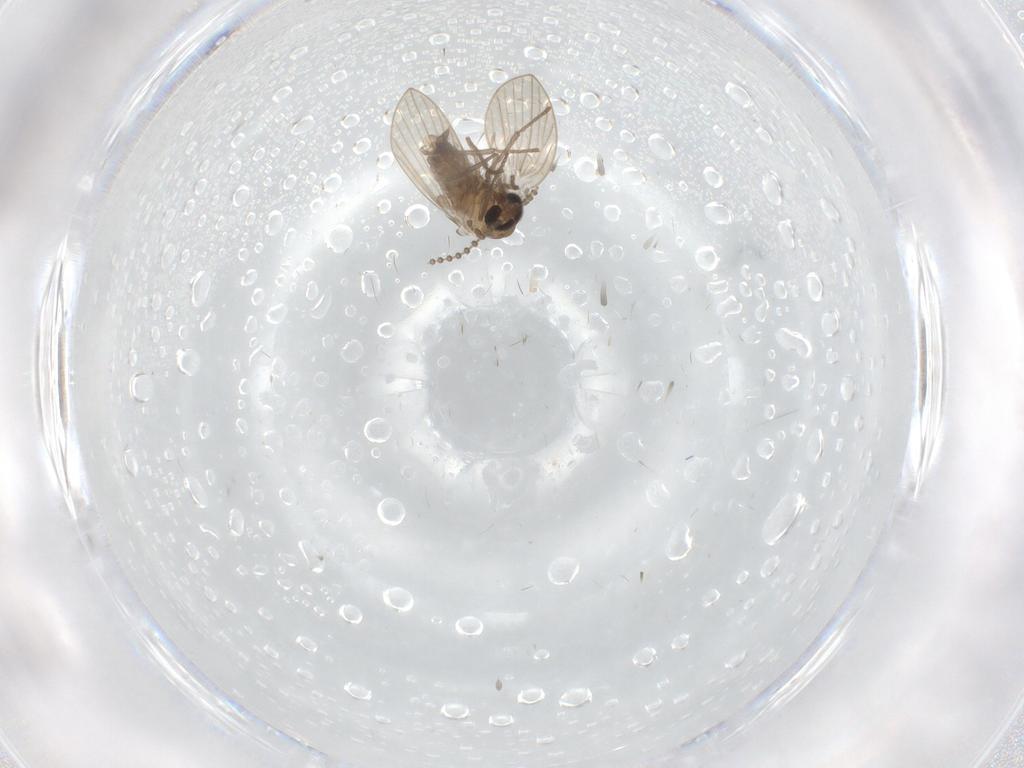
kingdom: Animalia
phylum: Arthropoda
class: Insecta
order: Diptera
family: Psychodidae
